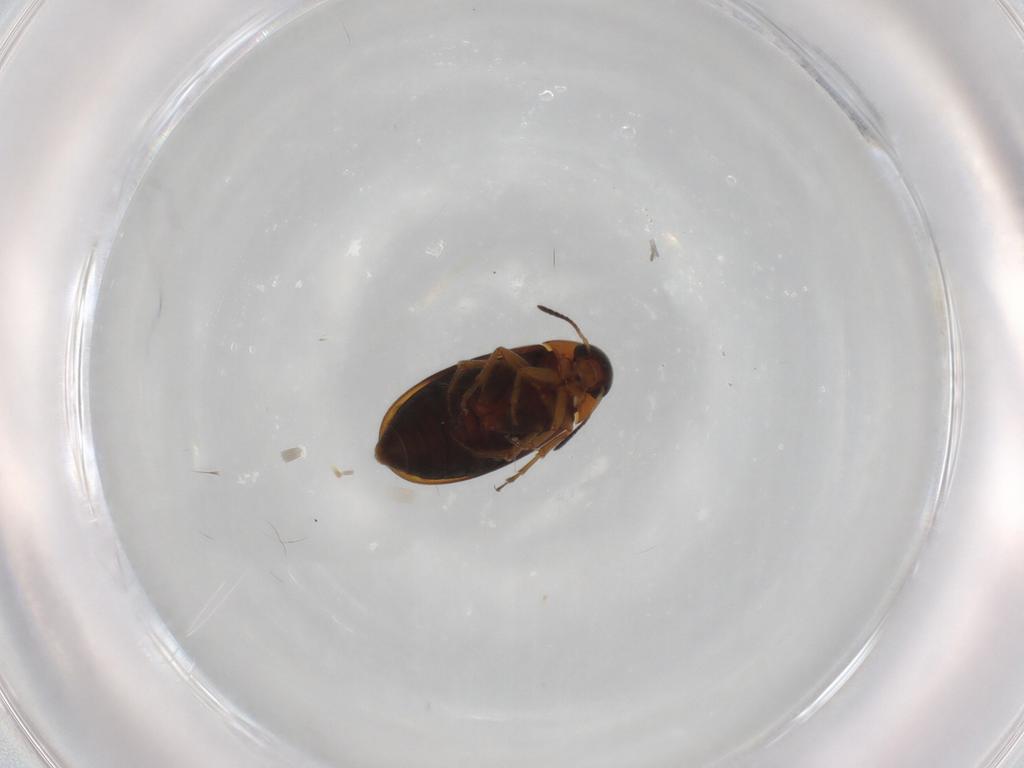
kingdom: Animalia
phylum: Arthropoda
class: Insecta
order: Coleoptera
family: Scraptiidae
